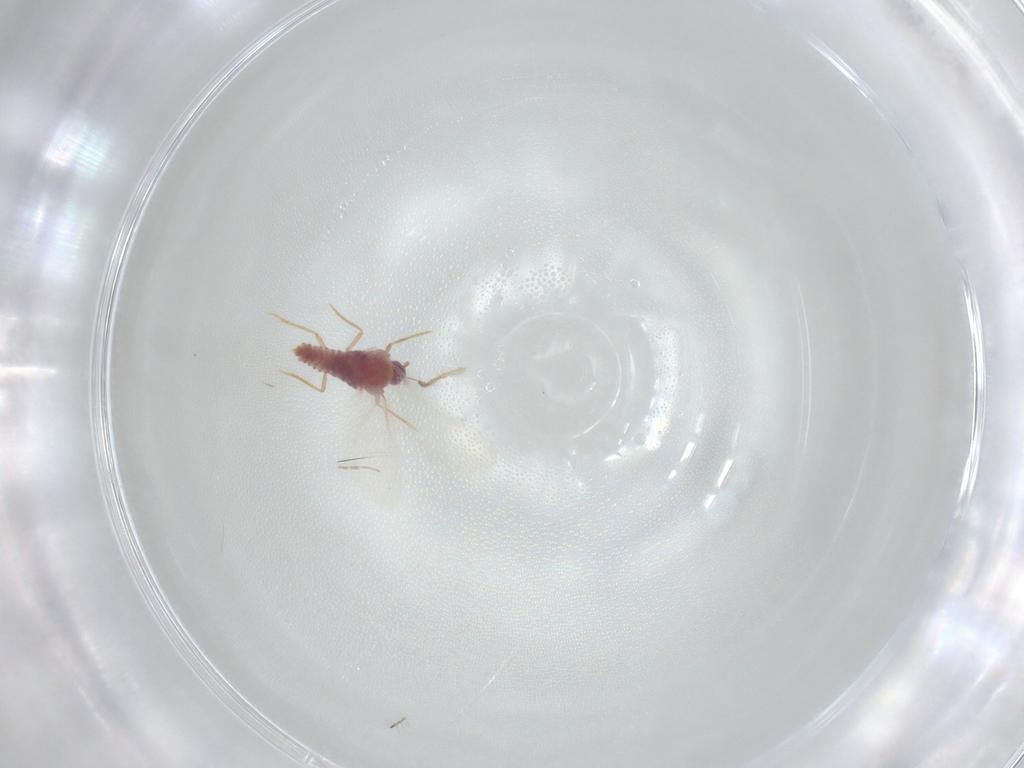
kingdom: Animalia
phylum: Arthropoda
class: Insecta
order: Hemiptera
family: Coccoidea_incertae_sedis
